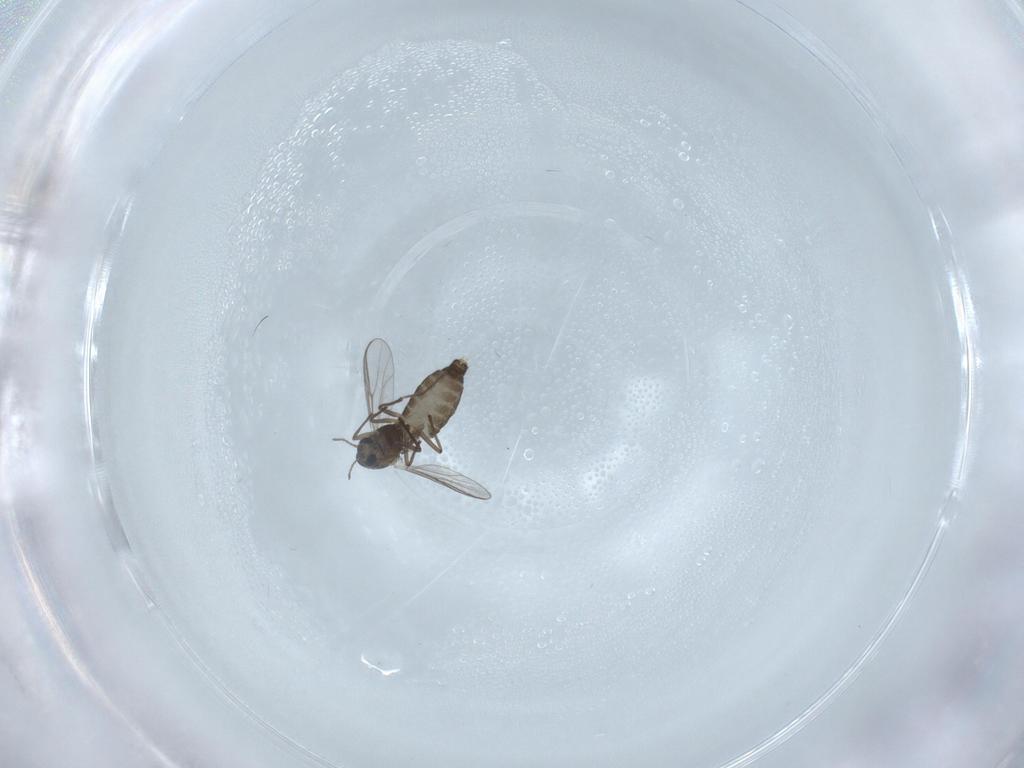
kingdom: Animalia
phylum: Arthropoda
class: Insecta
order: Diptera
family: Chironomidae
